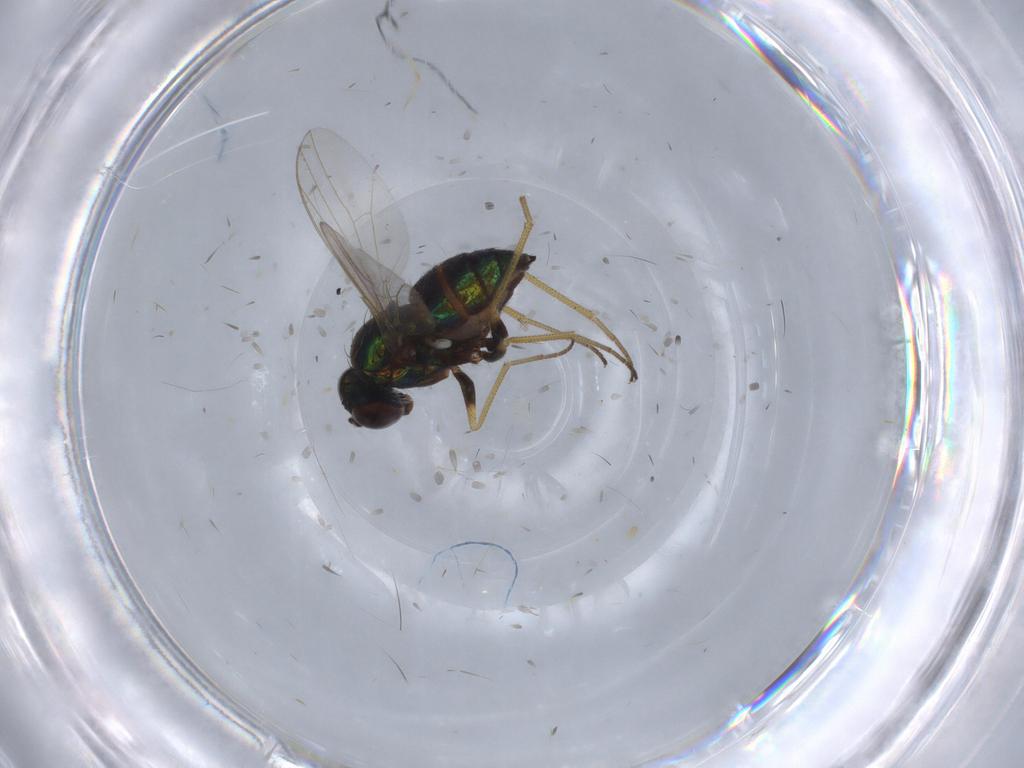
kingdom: Animalia
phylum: Arthropoda
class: Insecta
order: Diptera
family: Dolichopodidae
